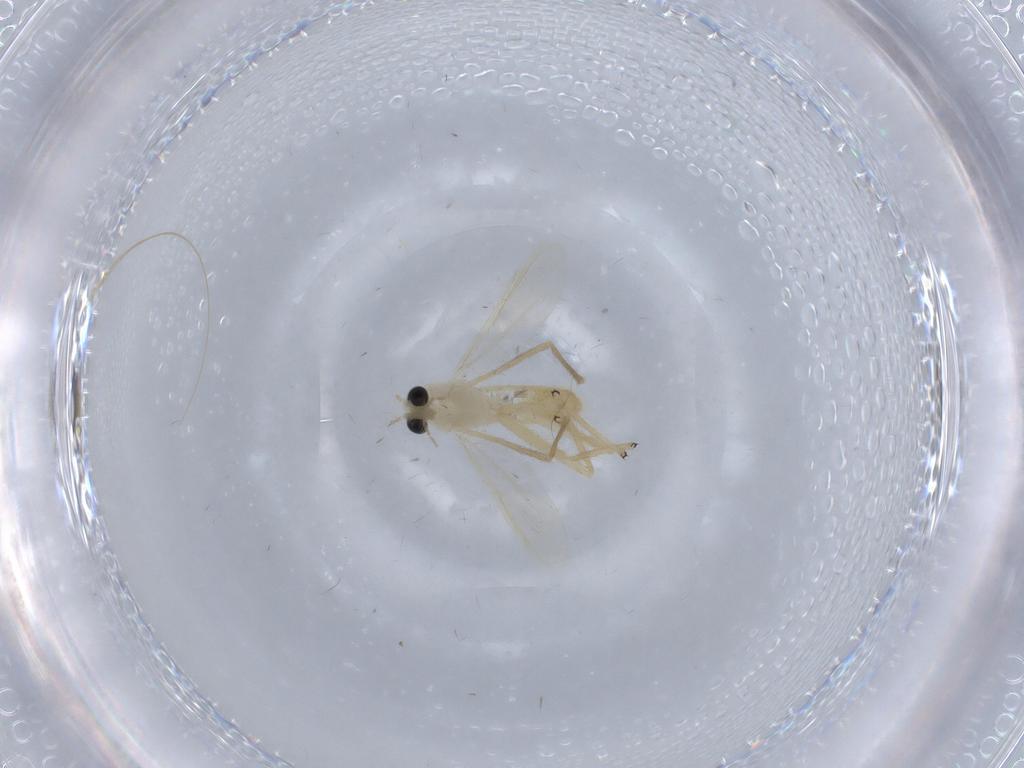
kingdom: Animalia
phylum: Arthropoda
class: Insecta
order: Diptera
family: Chironomidae
